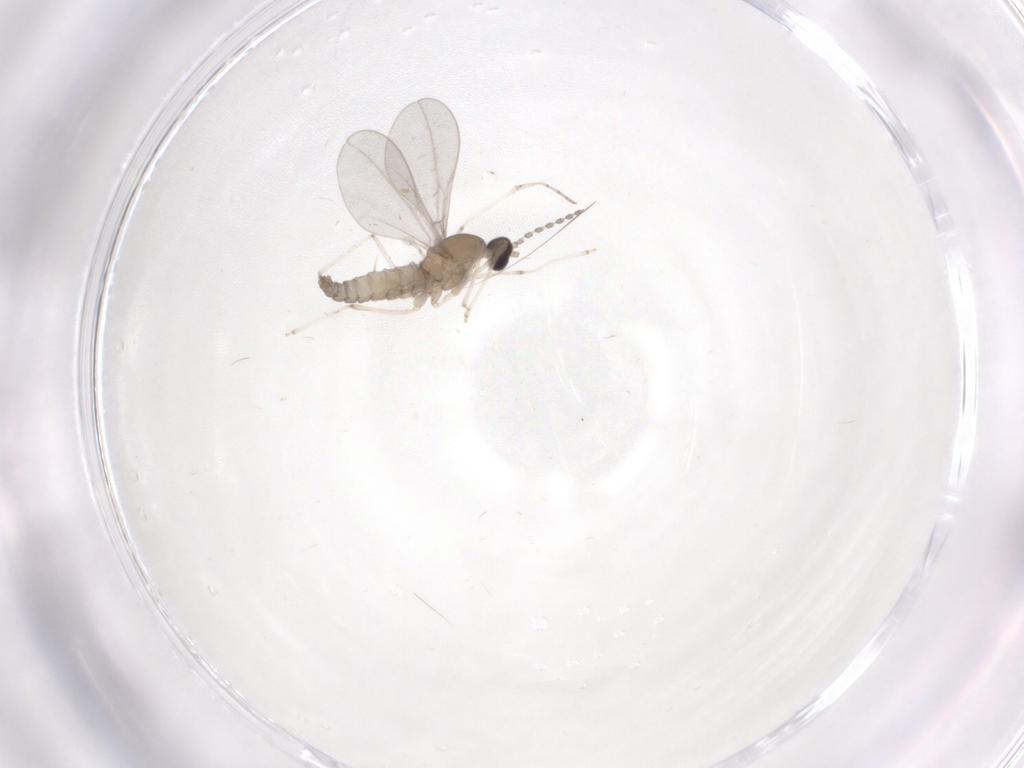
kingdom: Animalia
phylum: Arthropoda
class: Insecta
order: Diptera
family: Cecidomyiidae
